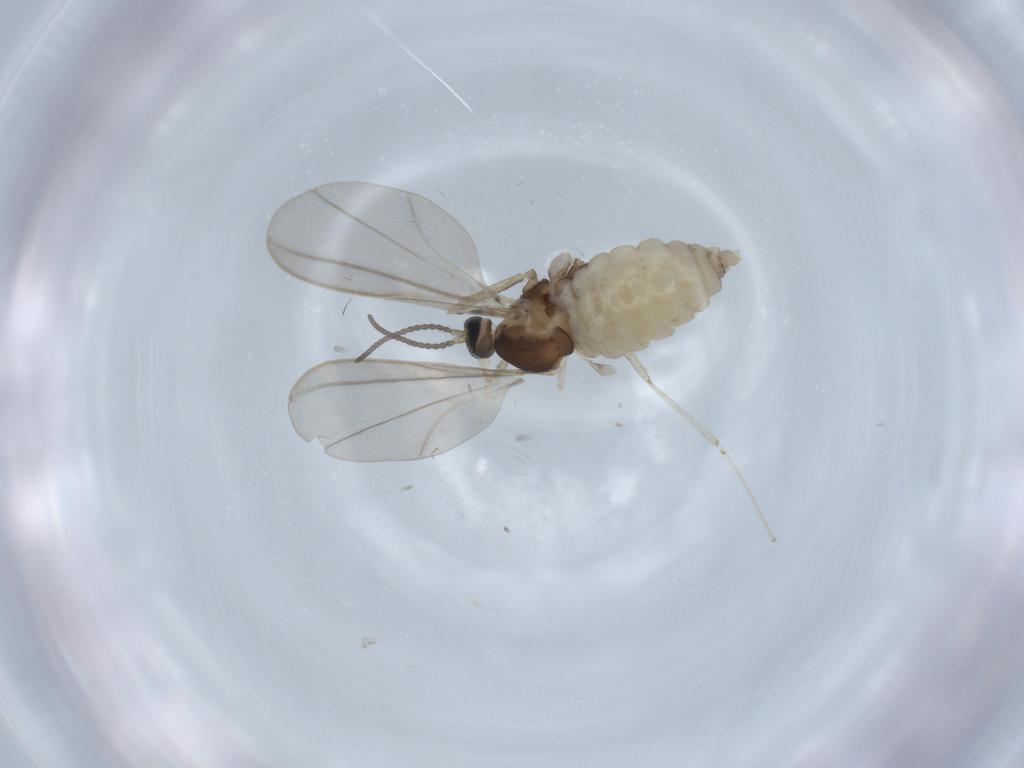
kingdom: Animalia
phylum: Arthropoda
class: Insecta
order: Diptera
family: Cecidomyiidae
